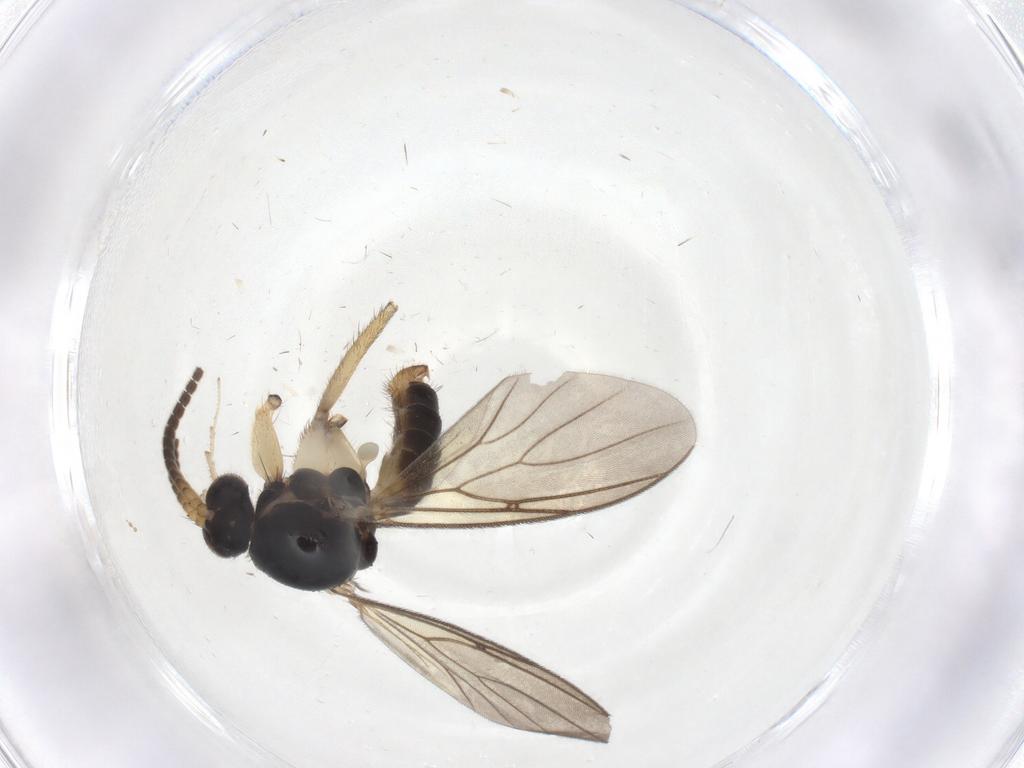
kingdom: Animalia
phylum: Arthropoda
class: Insecta
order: Diptera
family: Mycetophilidae
